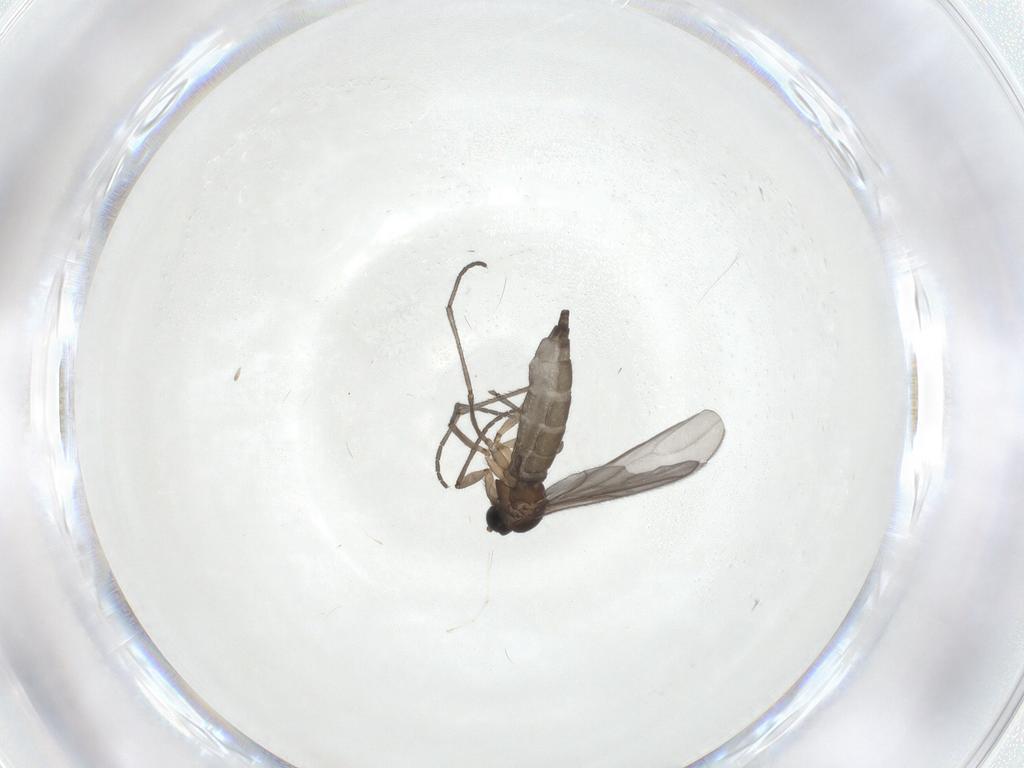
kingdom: Animalia
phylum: Arthropoda
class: Insecta
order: Diptera
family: Sciaridae
